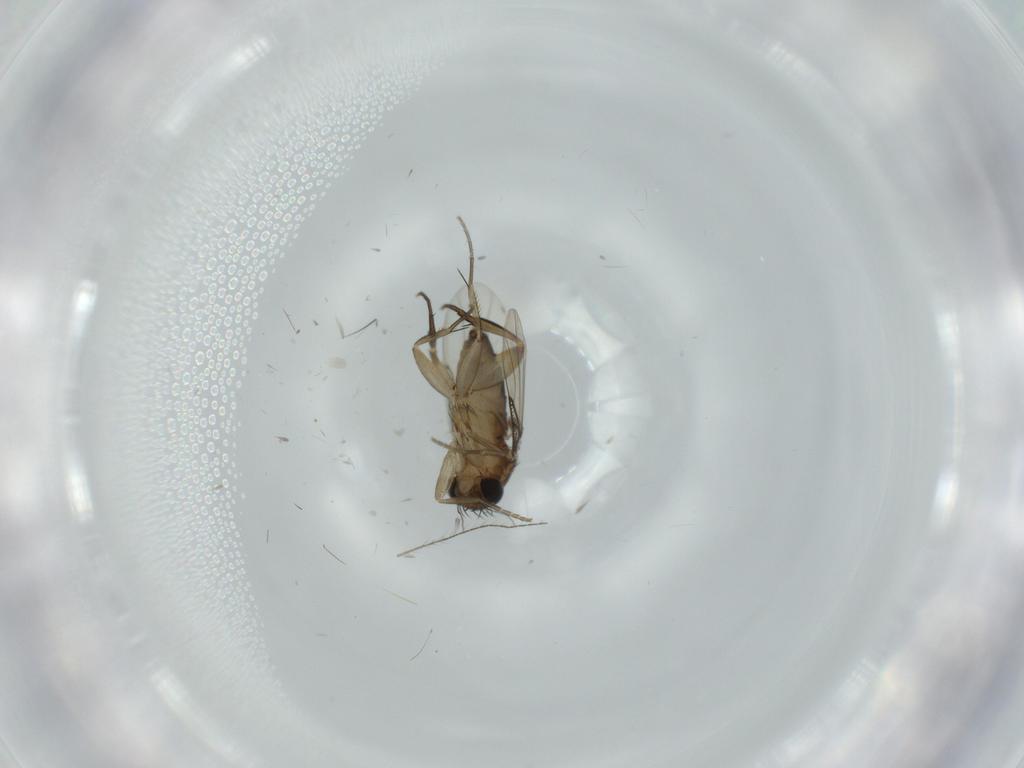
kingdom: Animalia
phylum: Arthropoda
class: Insecta
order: Diptera
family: Phoridae
